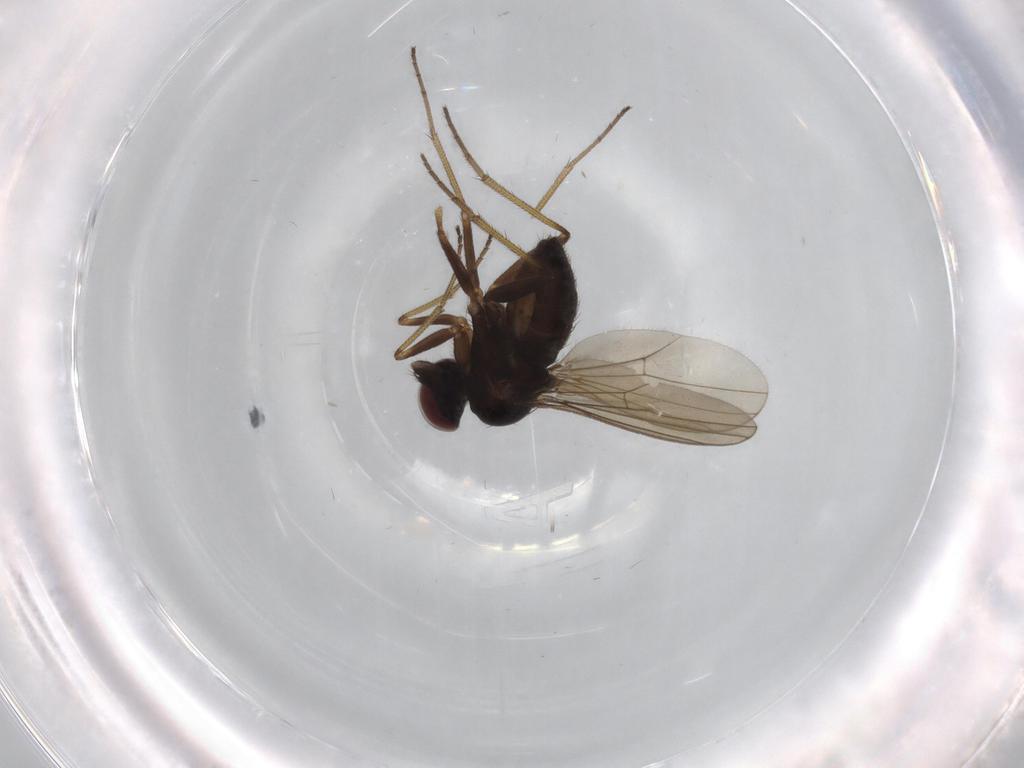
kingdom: Animalia
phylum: Arthropoda
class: Insecta
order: Diptera
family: Dolichopodidae
